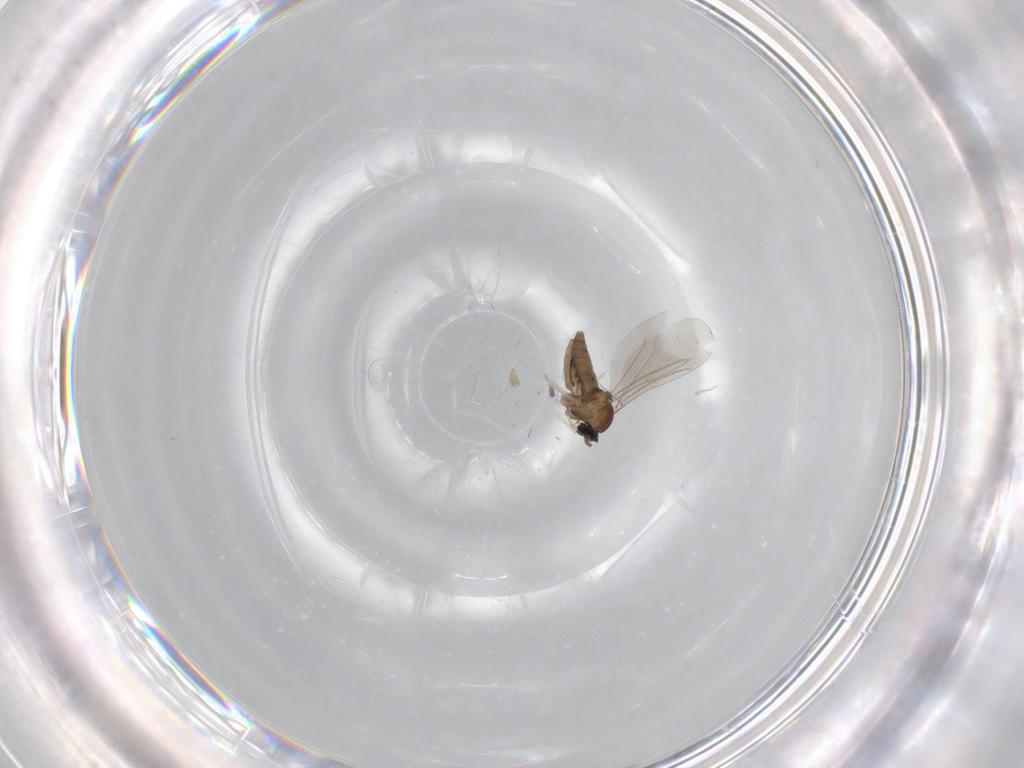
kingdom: Animalia
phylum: Arthropoda
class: Insecta
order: Diptera
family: Cecidomyiidae
